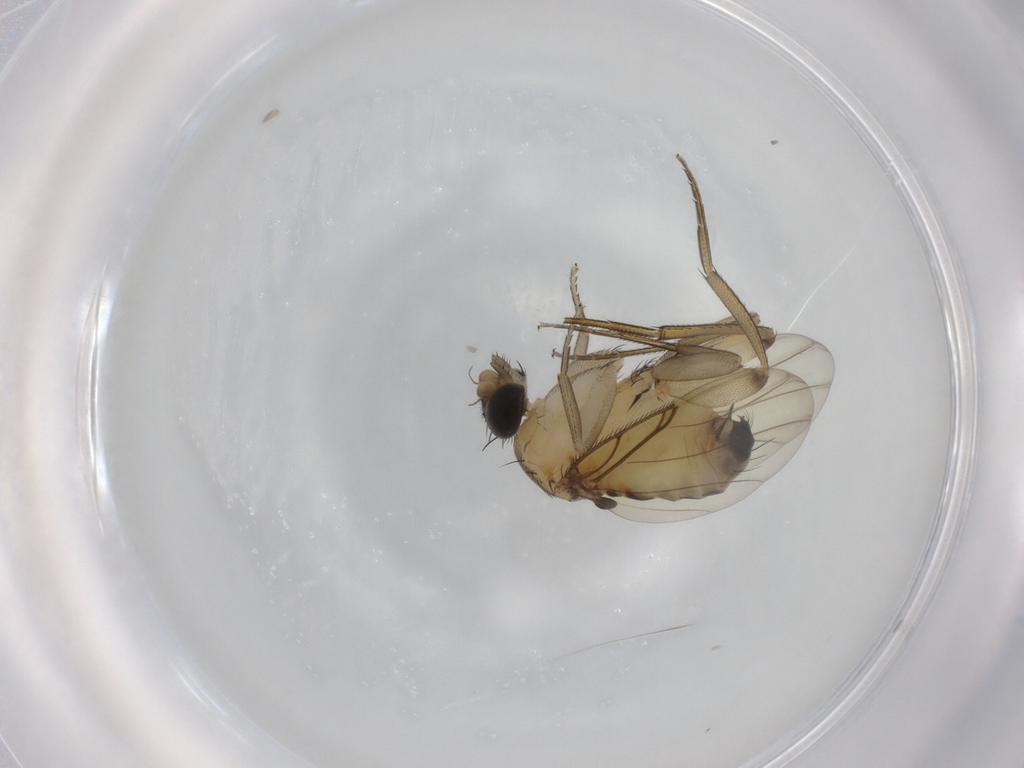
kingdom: Animalia
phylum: Arthropoda
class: Insecta
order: Diptera
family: Phoridae
